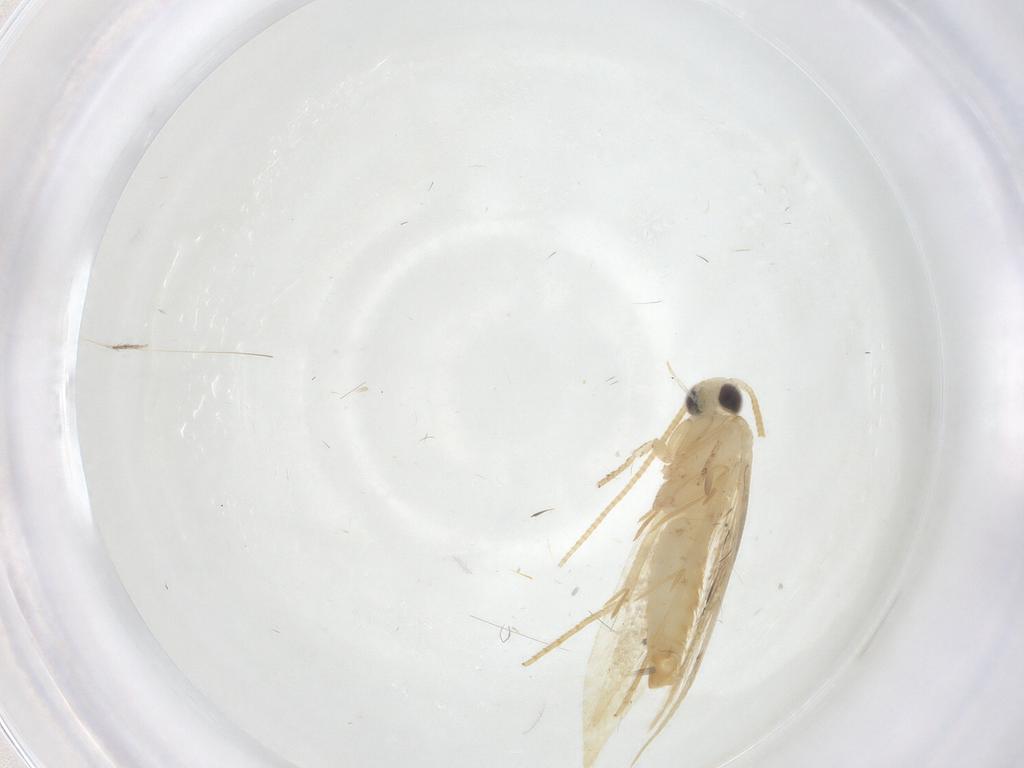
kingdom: Animalia
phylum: Arthropoda
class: Insecta
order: Lepidoptera
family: Tineidae
